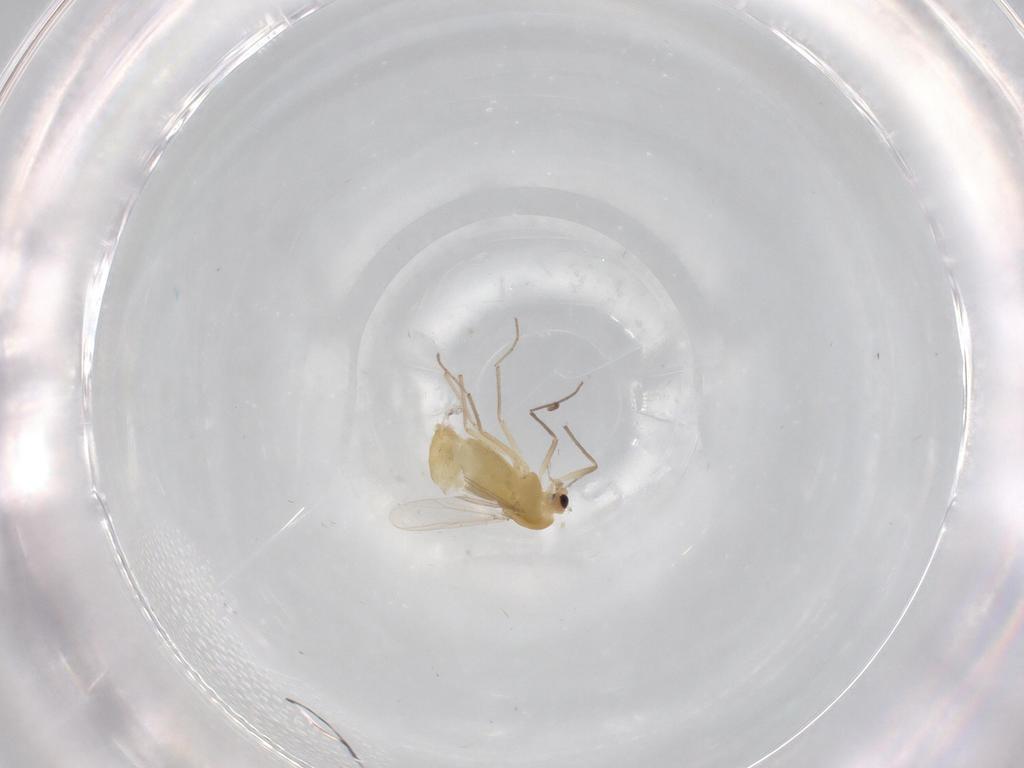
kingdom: Animalia
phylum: Arthropoda
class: Insecta
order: Diptera
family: Chironomidae
